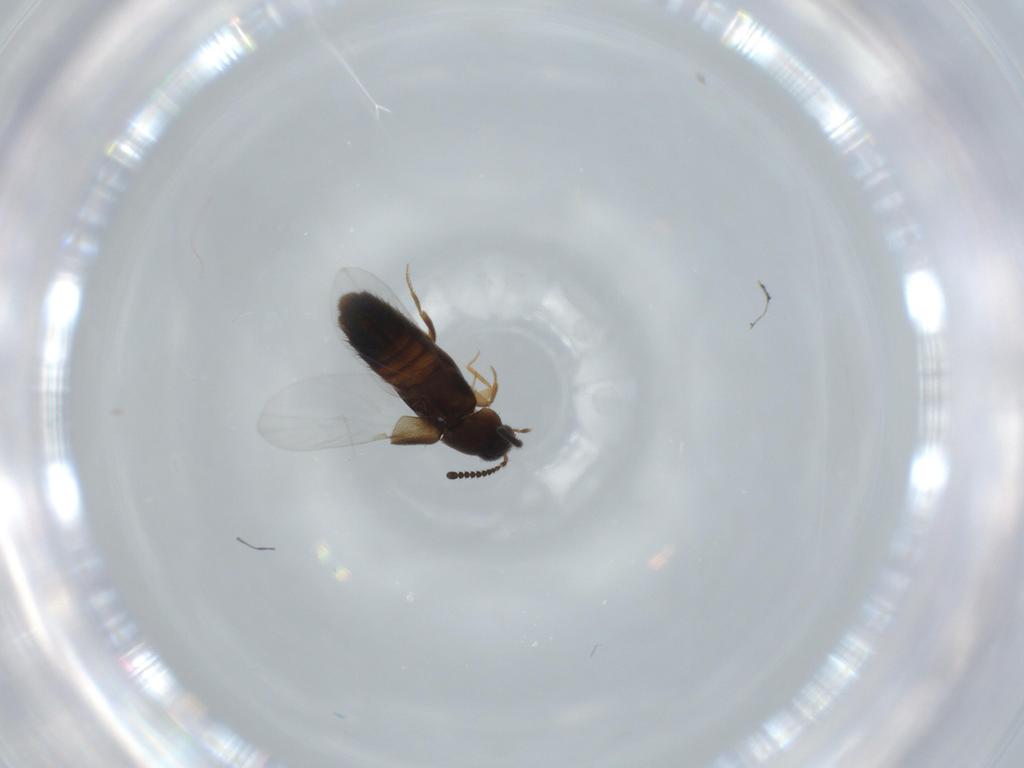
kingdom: Animalia
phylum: Arthropoda
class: Insecta
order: Coleoptera
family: Staphylinidae
